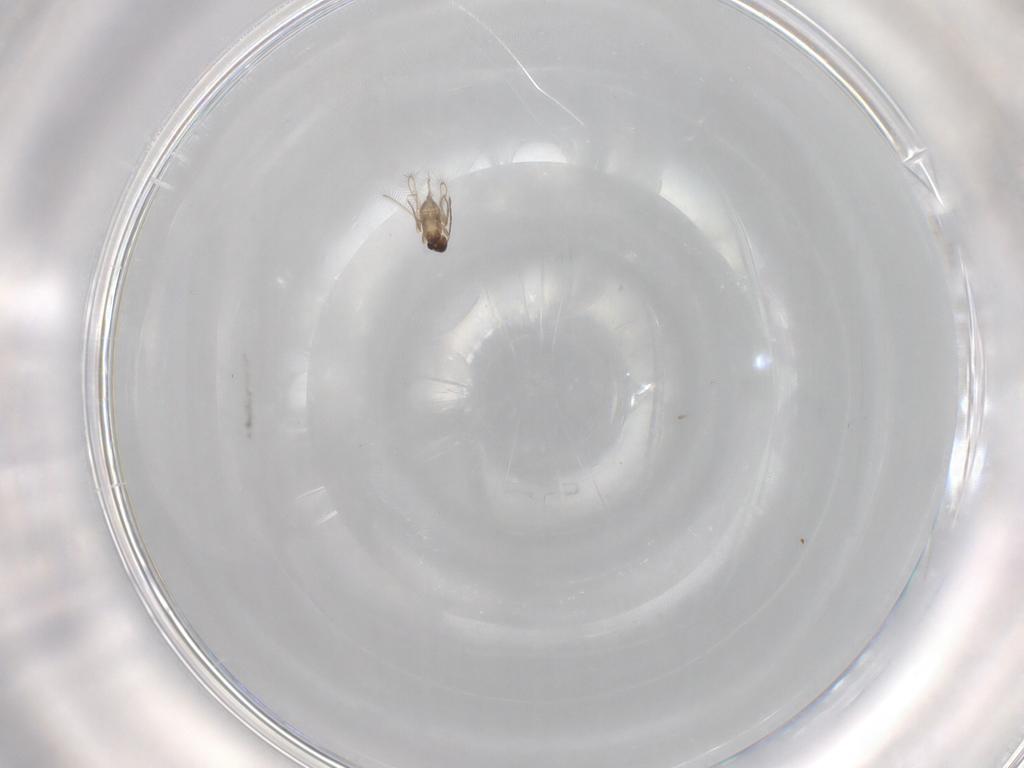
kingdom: Animalia
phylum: Arthropoda
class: Insecta
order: Hymenoptera
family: Mymaridae
